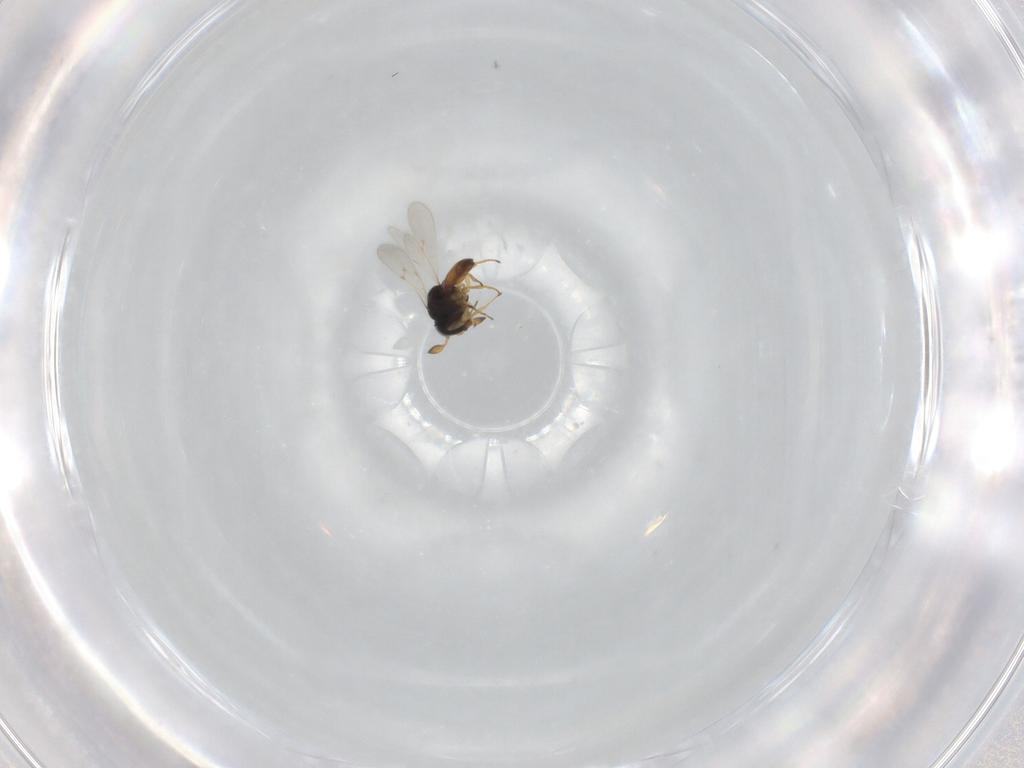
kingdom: Animalia
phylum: Arthropoda
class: Insecta
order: Hymenoptera
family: Scelionidae
